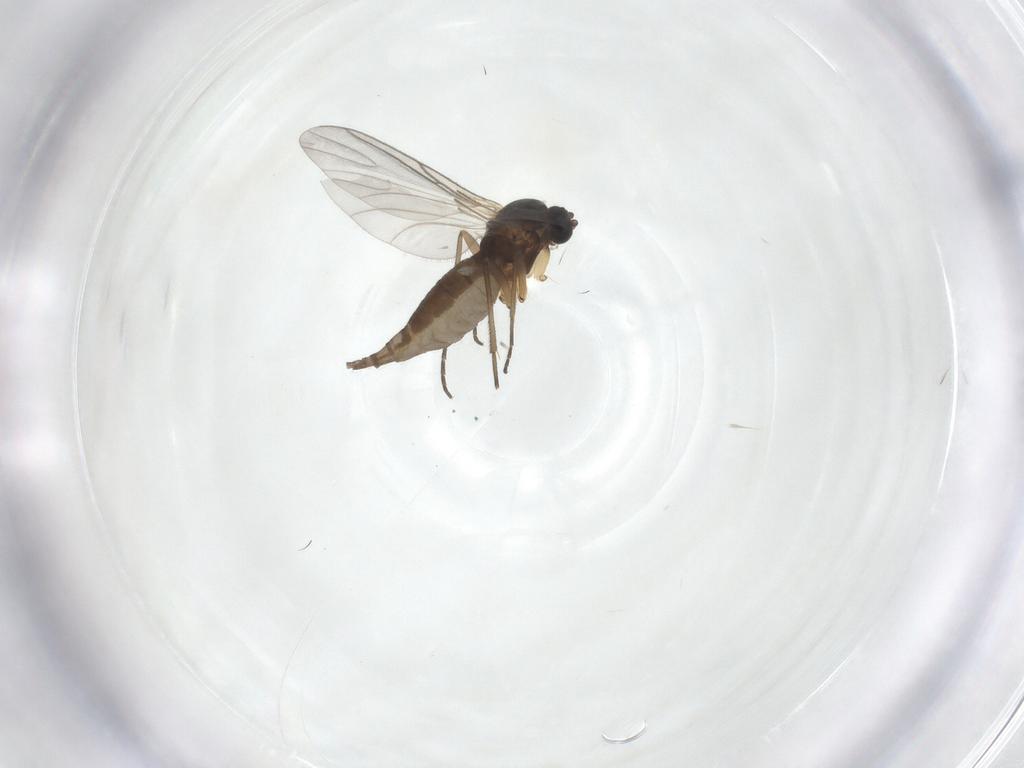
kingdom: Animalia
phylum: Arthropoda
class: Insecta
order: Diptera
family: Sciaridae
